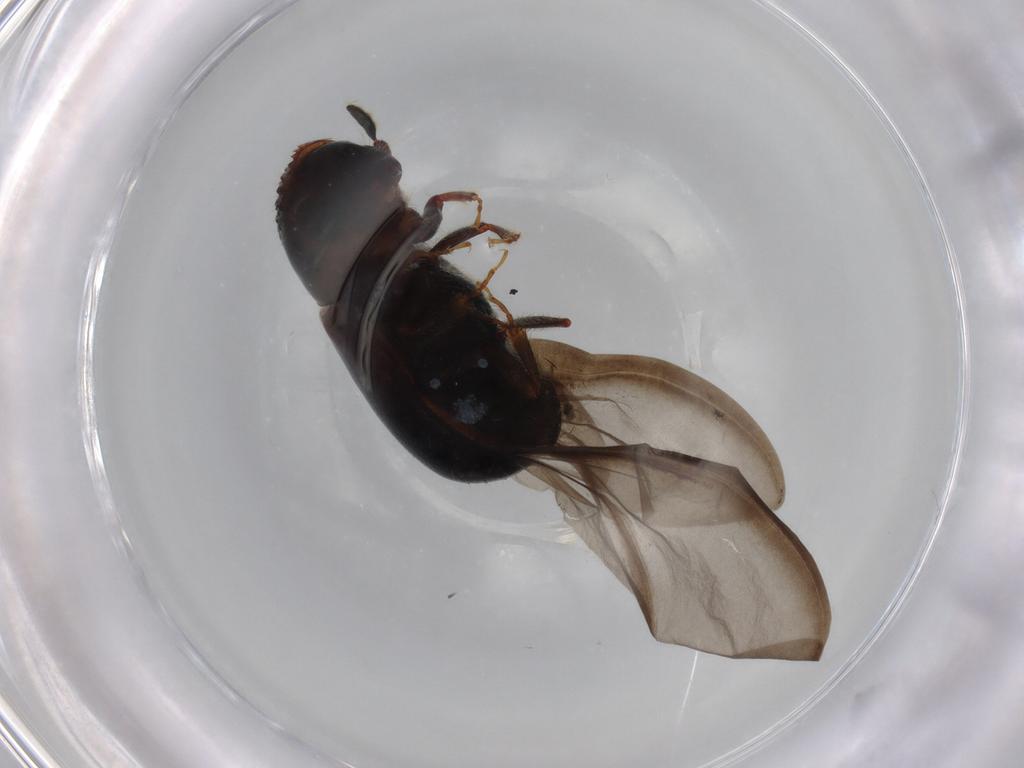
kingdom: Animalia
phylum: Arthropoda
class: Insecta
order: Coleoptera
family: Curculionidae
